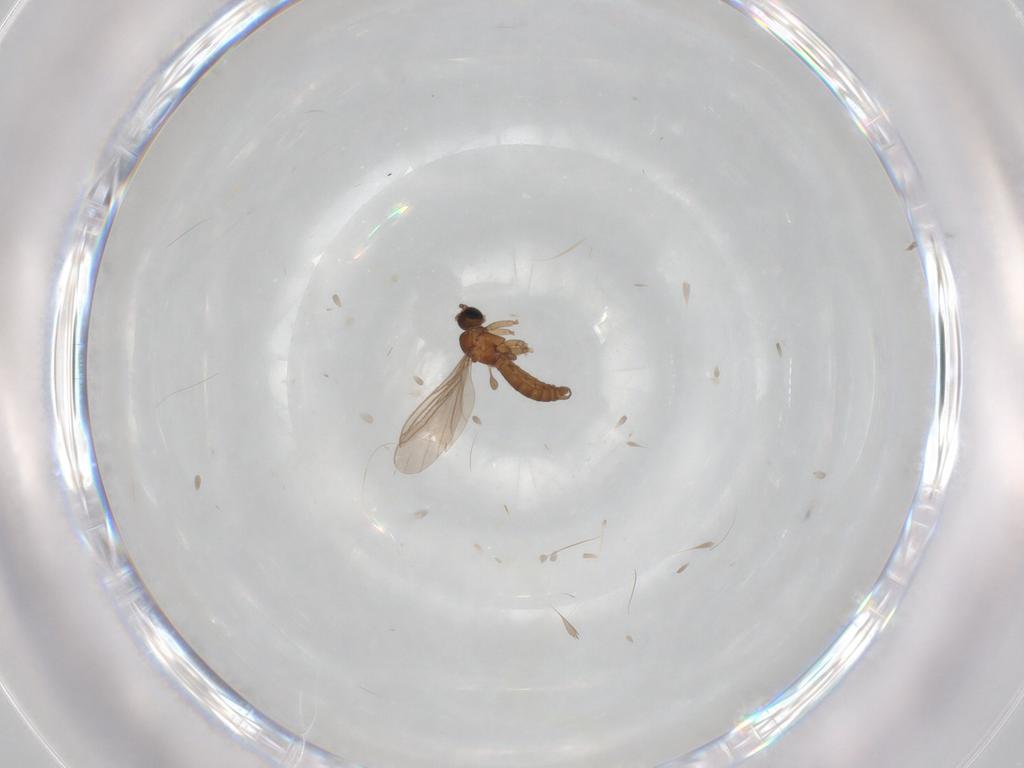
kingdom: Animalia
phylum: Arthropoda
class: Insecta
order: Diptera
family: Sciaridae
